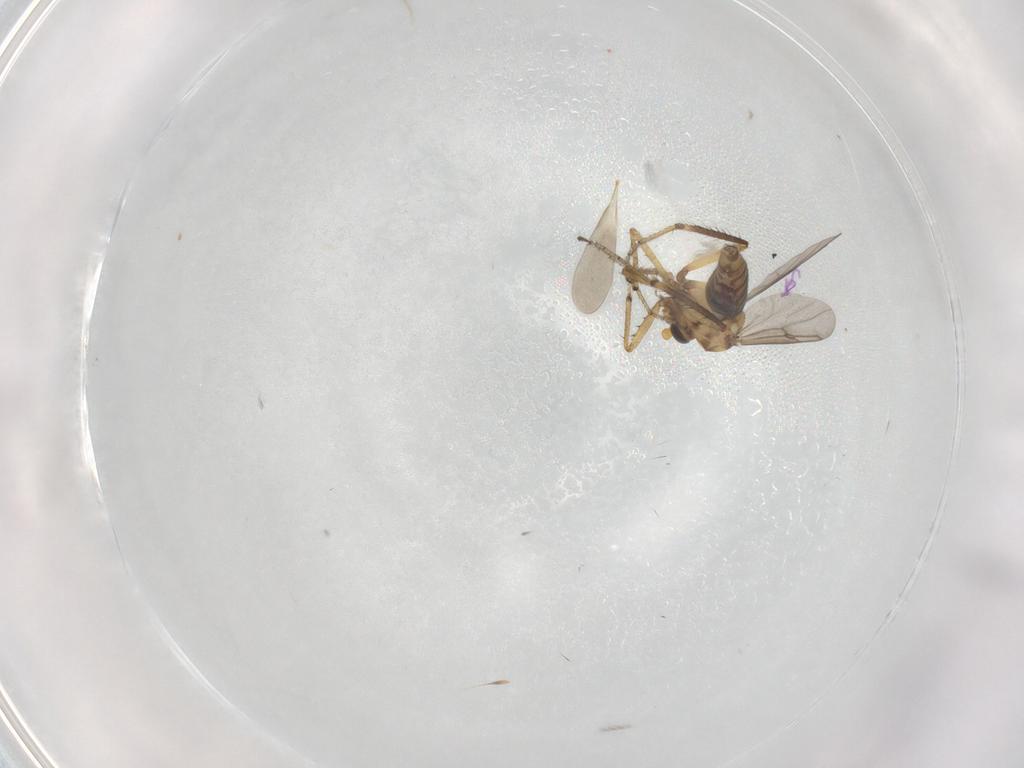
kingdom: Animalia
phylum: Arthropoda
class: Insecta
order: Diptera
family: Ceratopogonidae
